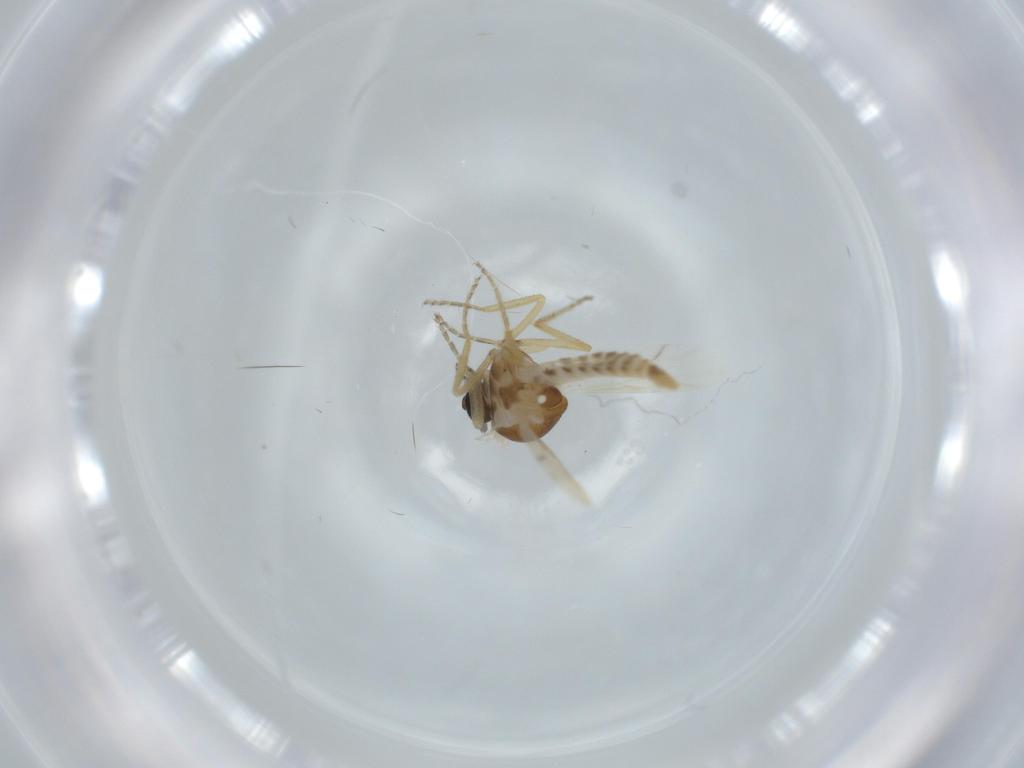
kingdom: Animalia
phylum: Arthropoda
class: Insecta
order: Diptera
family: Ceratopogonidae
